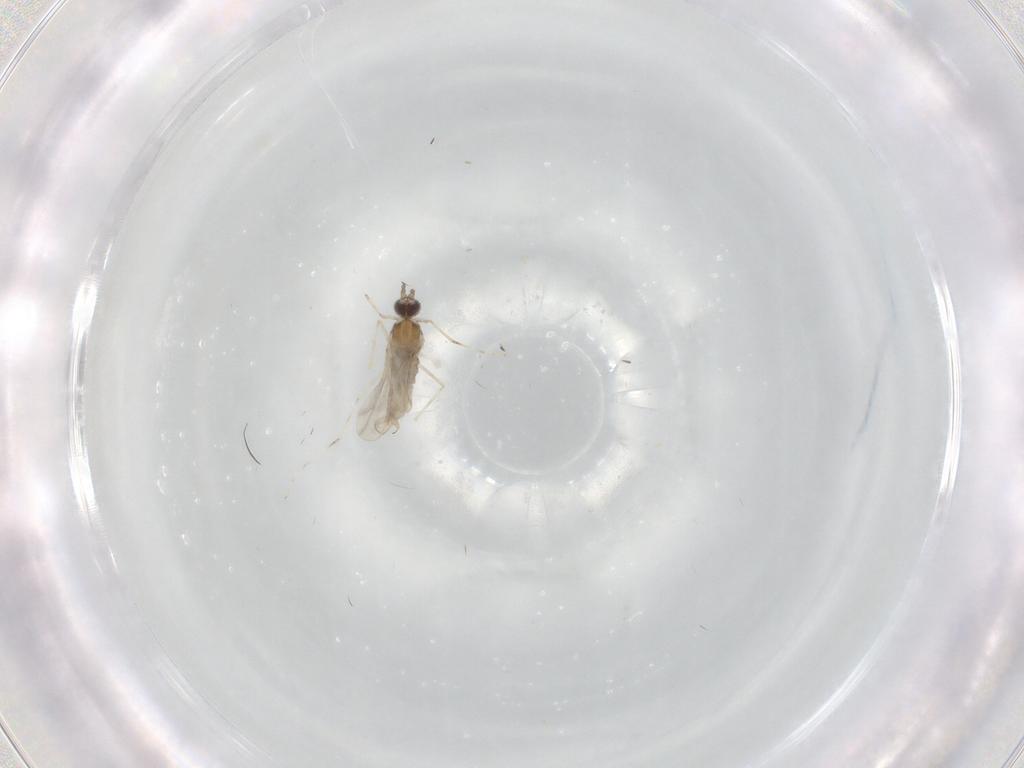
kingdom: Animalia
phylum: Arthropoda
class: Insecta
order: Diptera
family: Cecidomyiidae
